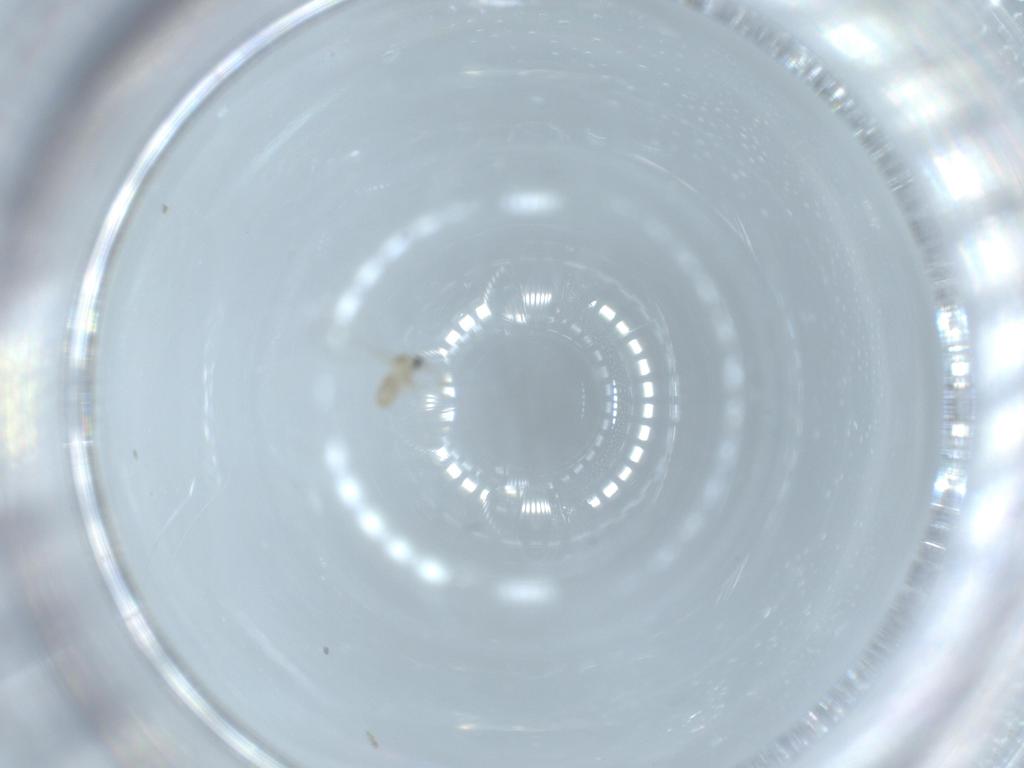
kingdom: Animalia
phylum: Arthropoda
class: Insecta
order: Diptera
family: Cecidomyiidae
